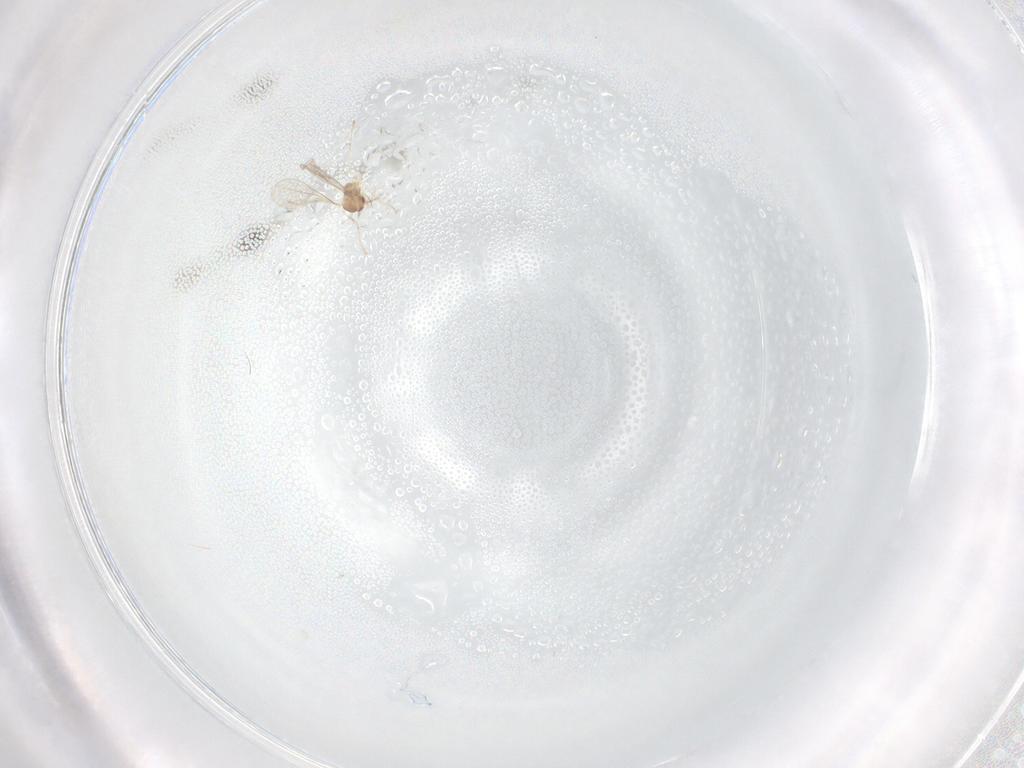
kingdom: Animalia
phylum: Arthropoda
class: Insecta
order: Diptera
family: Cecidomyiidae
